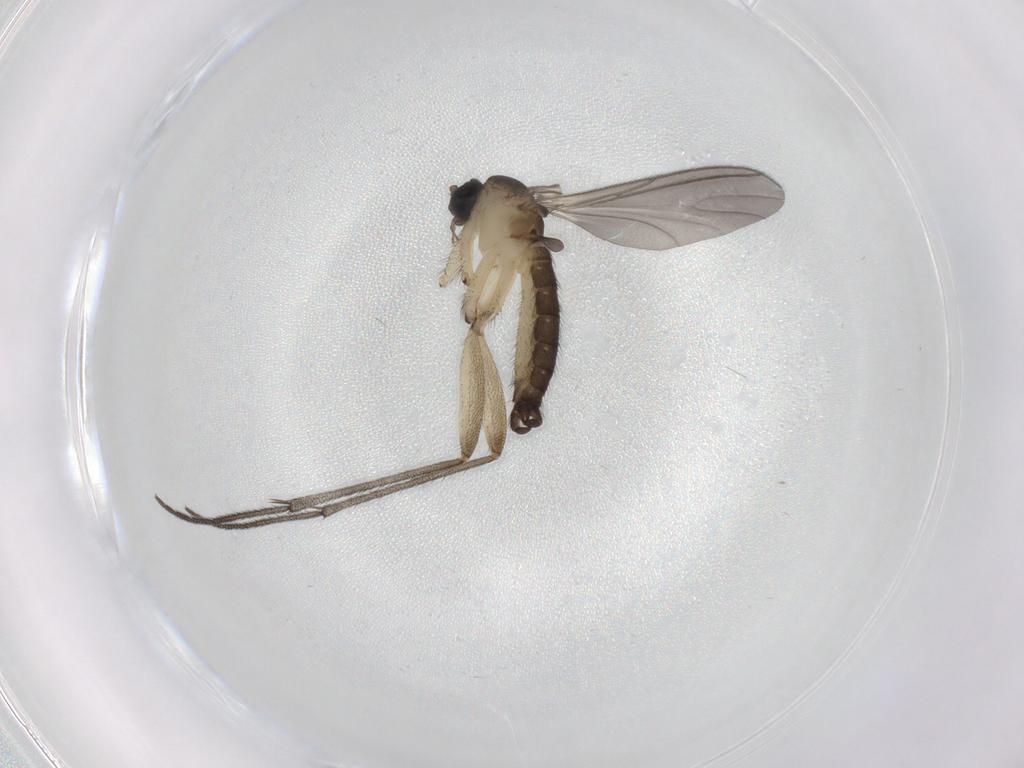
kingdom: Animalia
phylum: Arthropoda
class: Insecta
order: Diptera
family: Sciaridae
